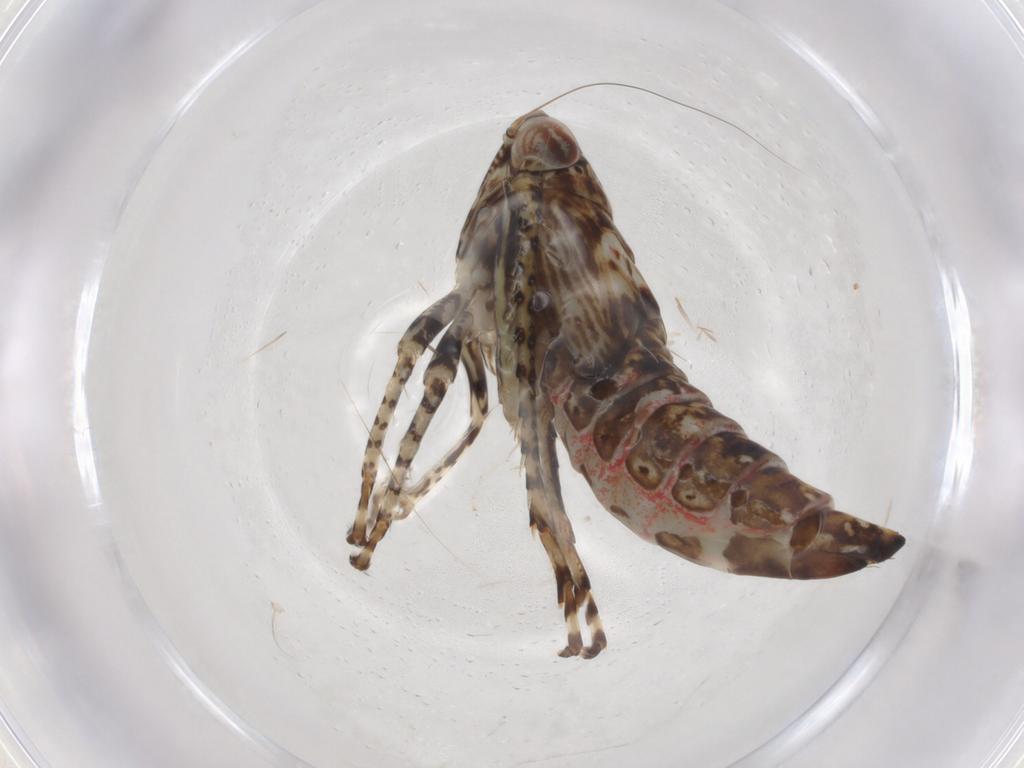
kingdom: Animalia
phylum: Arthropoda
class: Insecta
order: Hemiptera
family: Cicadellidae
